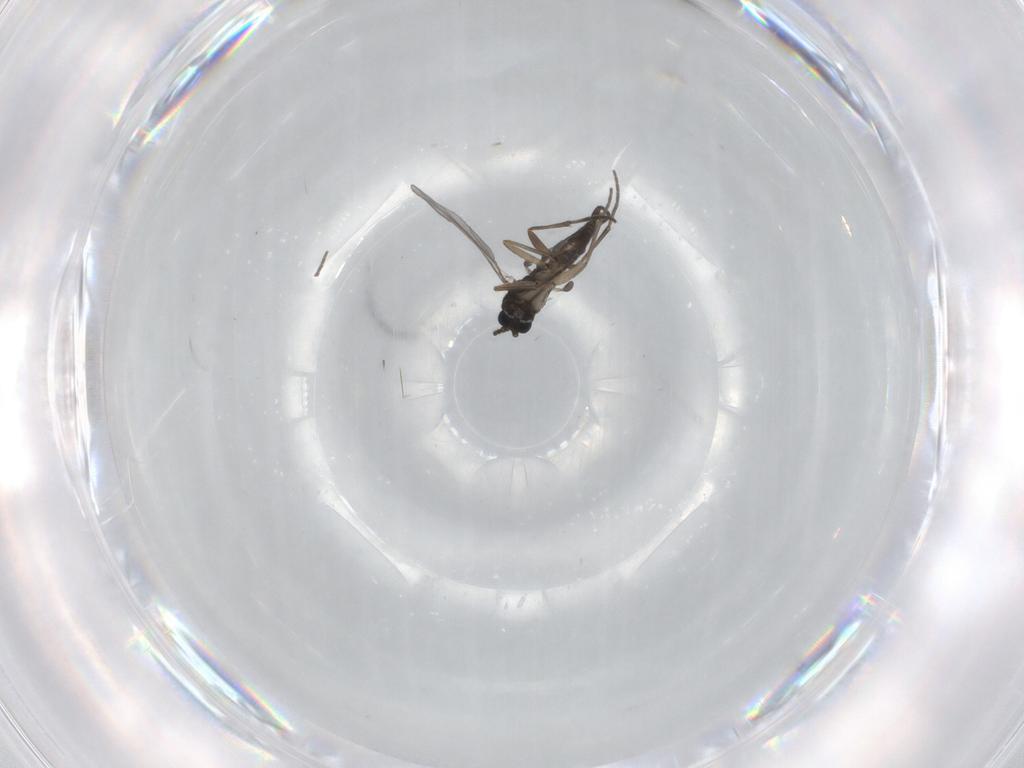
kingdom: Animalia
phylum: Arthropoda
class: Insecta
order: Diptera
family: Sciaridae
